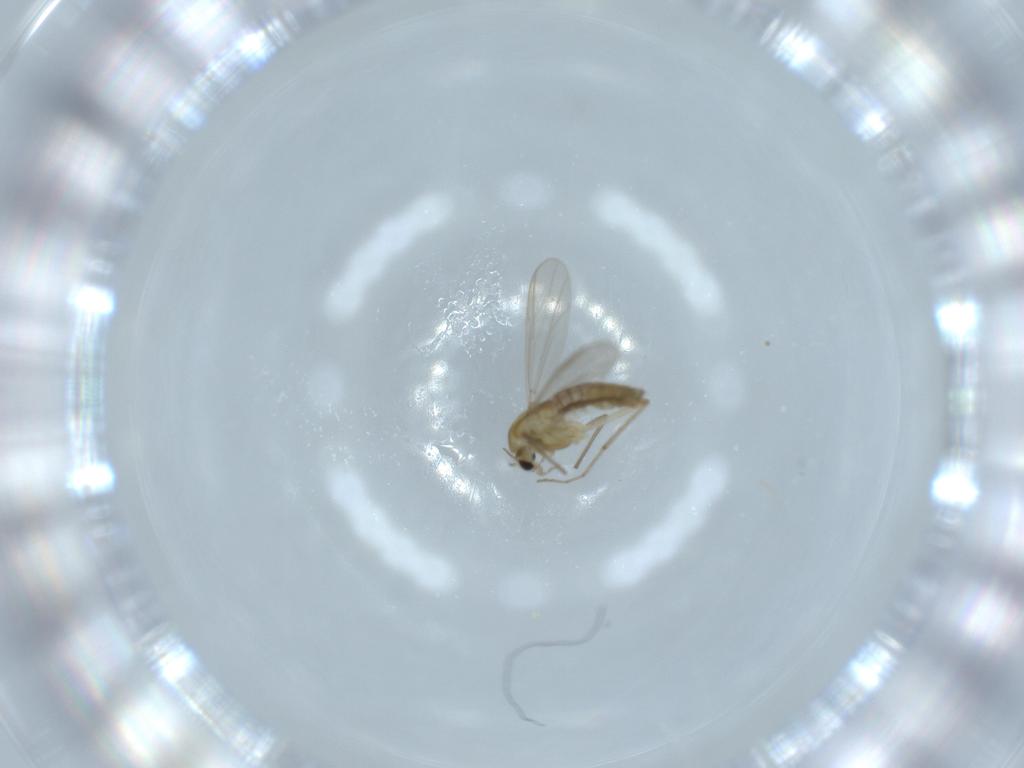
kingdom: Animalia
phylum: Arthropoda
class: Insecta
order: Diptera
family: Chironomidae
